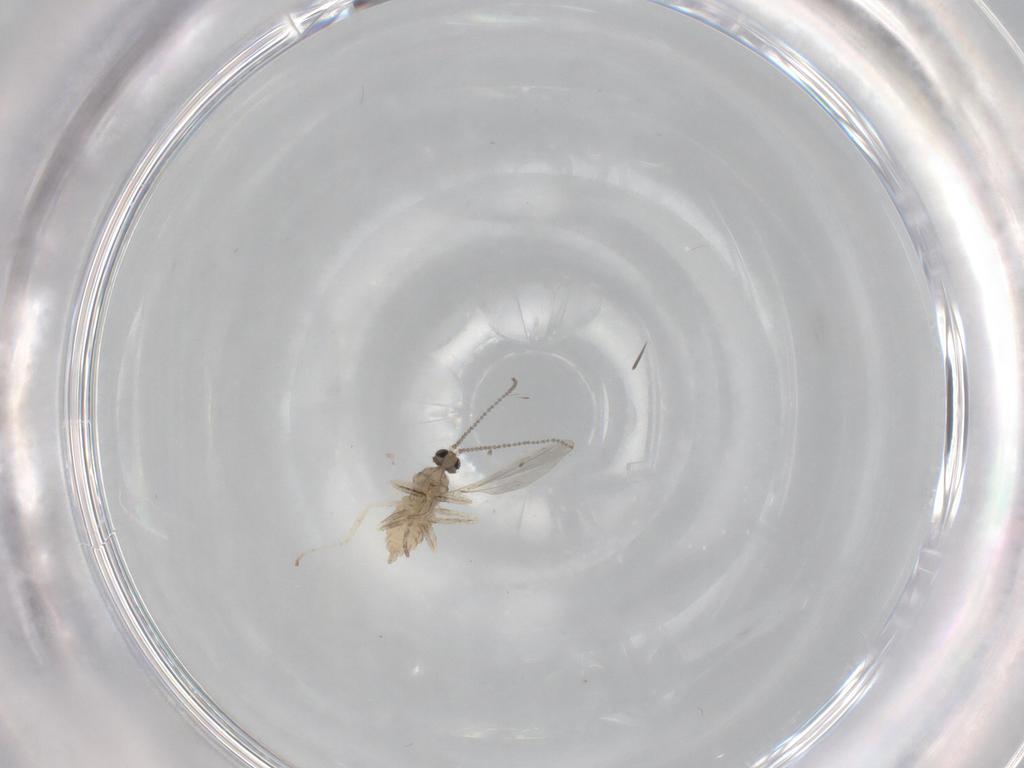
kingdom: Animalia
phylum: Arthropoda
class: Insecta
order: Diptera
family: Cecidomyiidae
